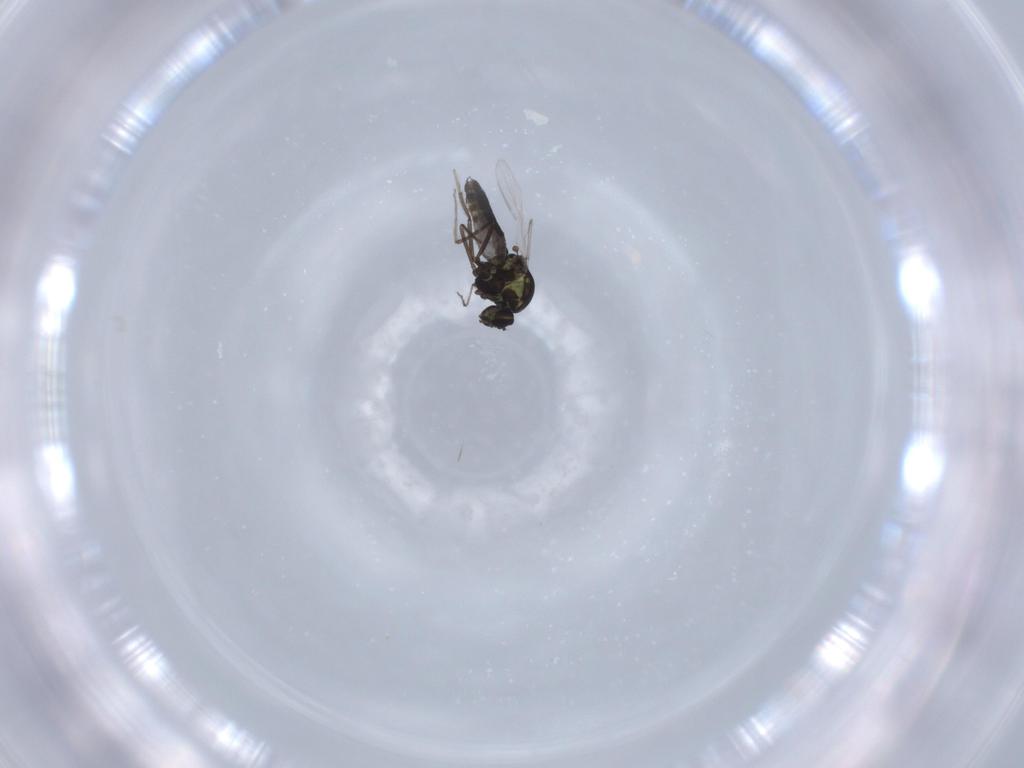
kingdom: Animalia
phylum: Arthropoda
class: Insecta
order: Diptera
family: Ceratopogonidae
